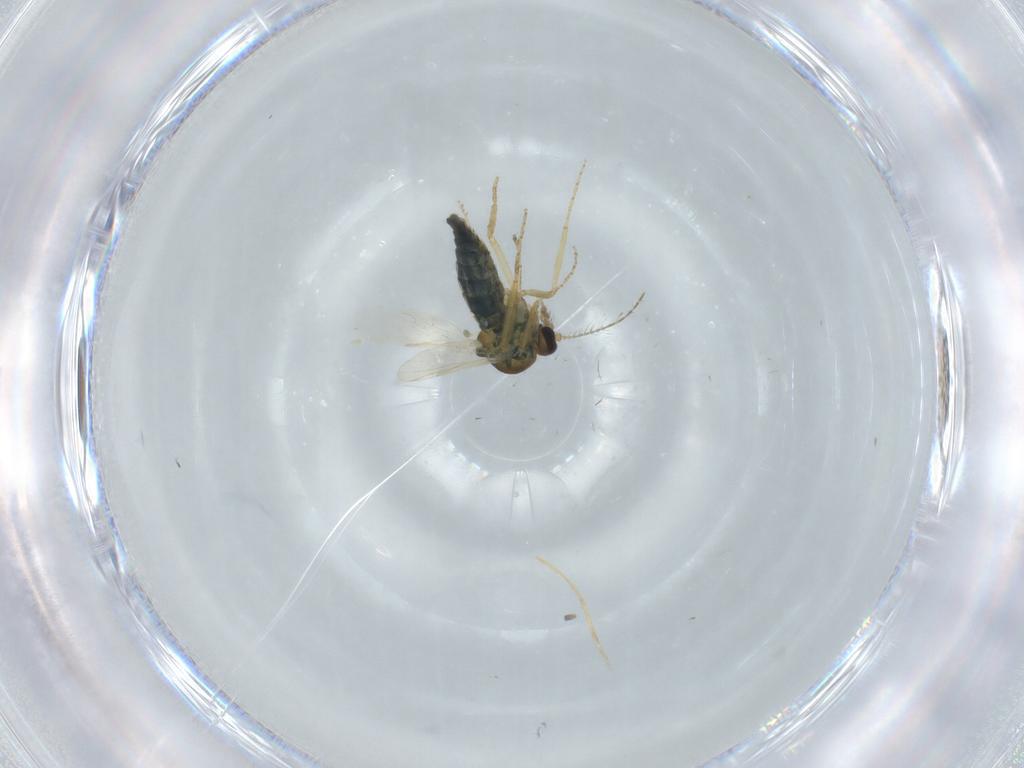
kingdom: Animalia
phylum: Arthropoda
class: Insecta
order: Diptera
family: Ceratopogonidae
